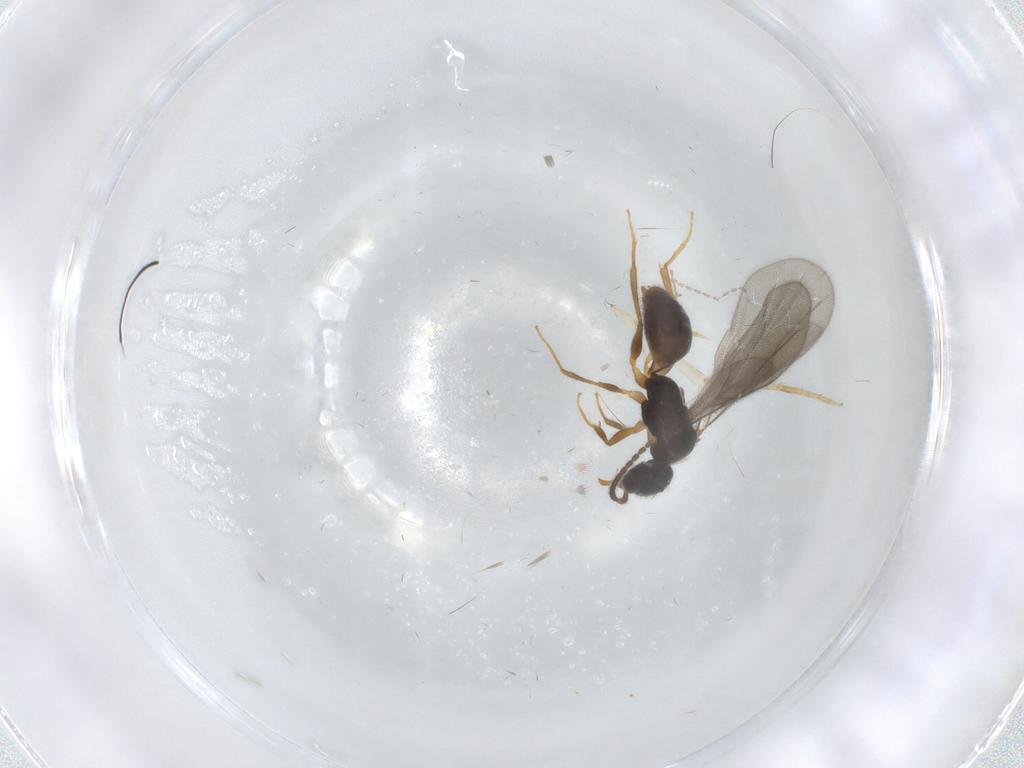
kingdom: Animalia
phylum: Arthropoda
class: Insecta
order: Hymenoptera
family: Bethylidae
